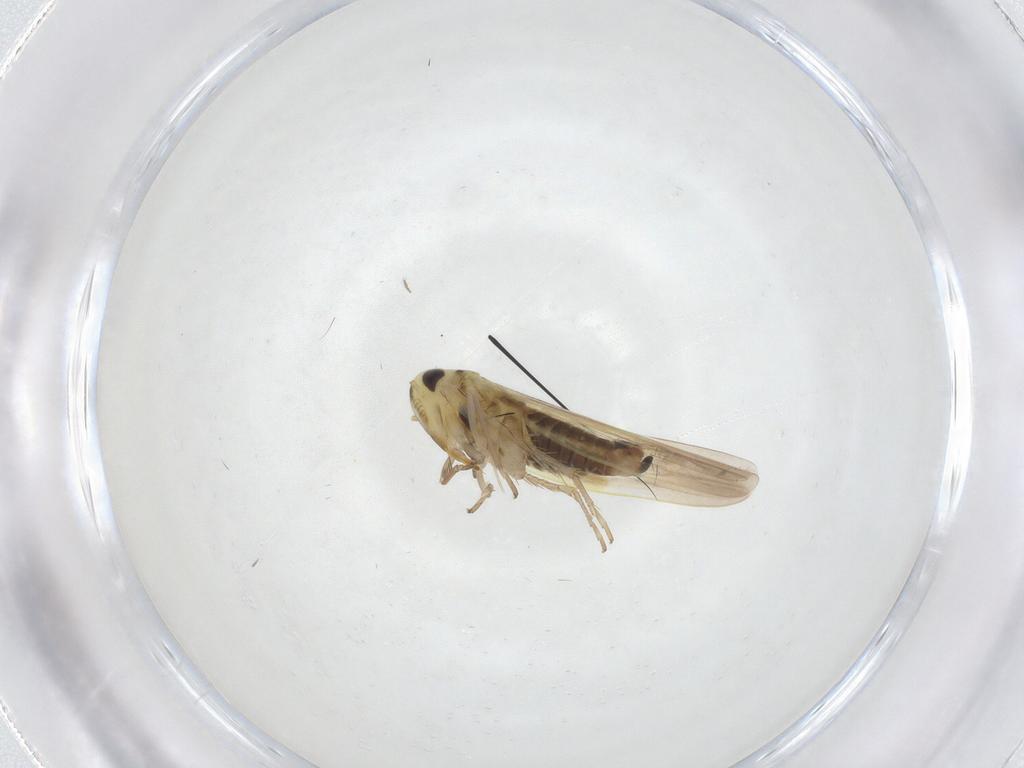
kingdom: Animalia
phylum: Arthropoda
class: Insecta
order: Hemiptera
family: Cicadellidae
